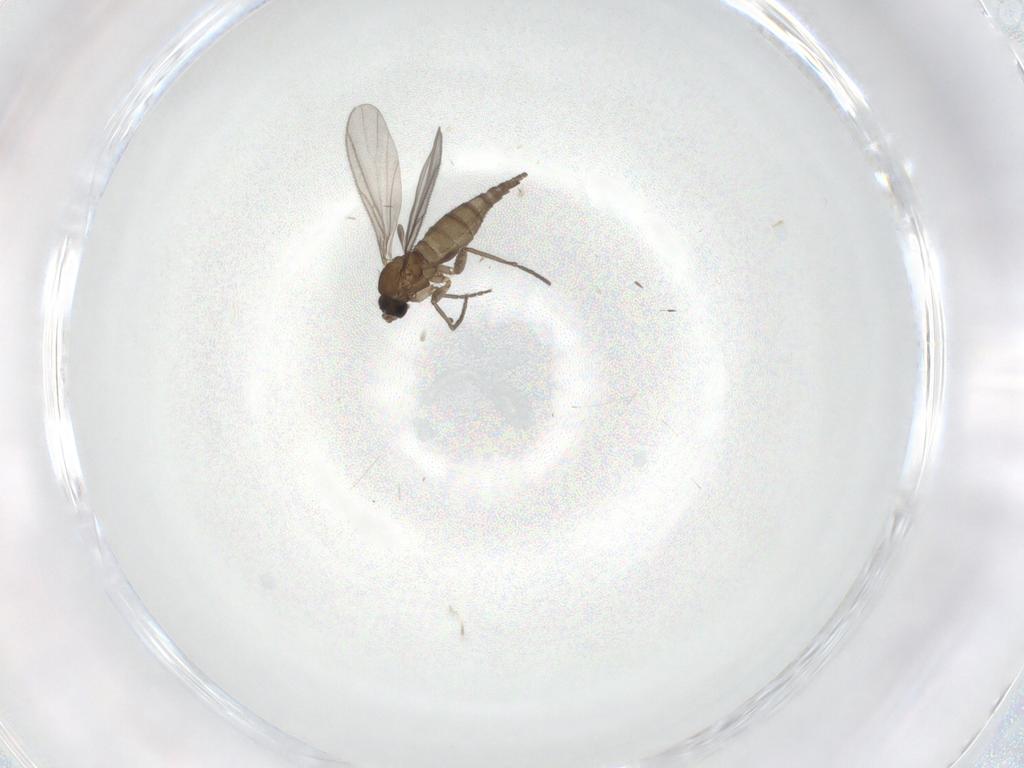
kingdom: Animalia
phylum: Arthropoda
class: Insecta
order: Diptera
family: Sciaridae
